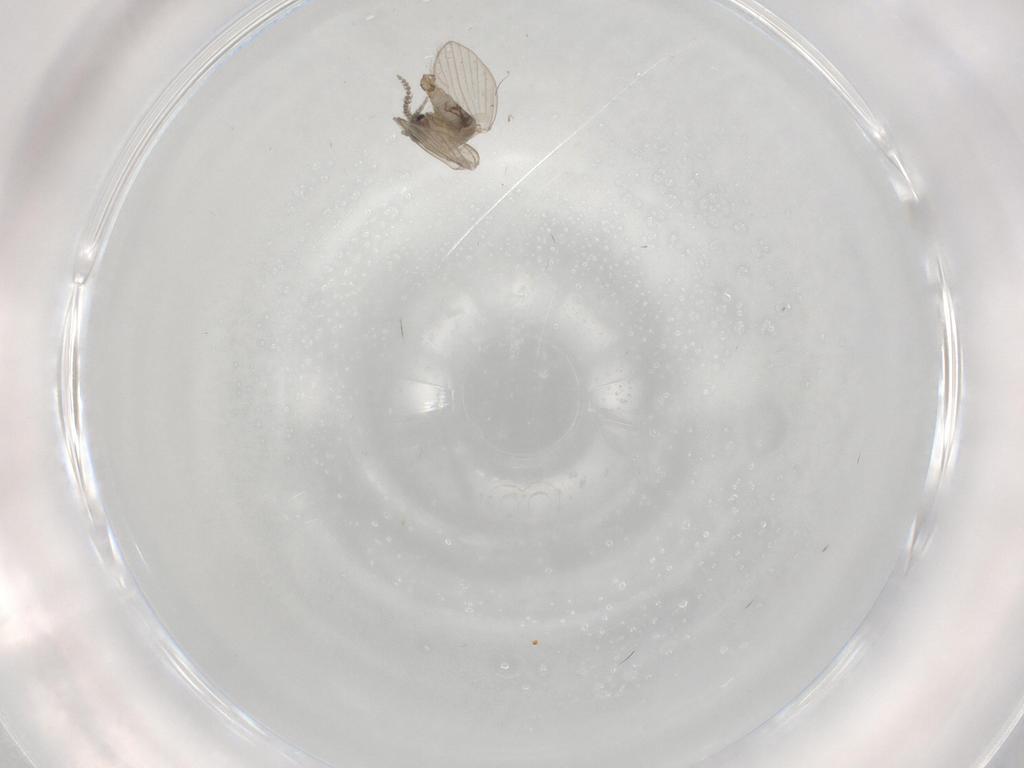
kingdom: Animalia
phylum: Arthropoda
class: Insecta
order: Diptera
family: Psychodidae
